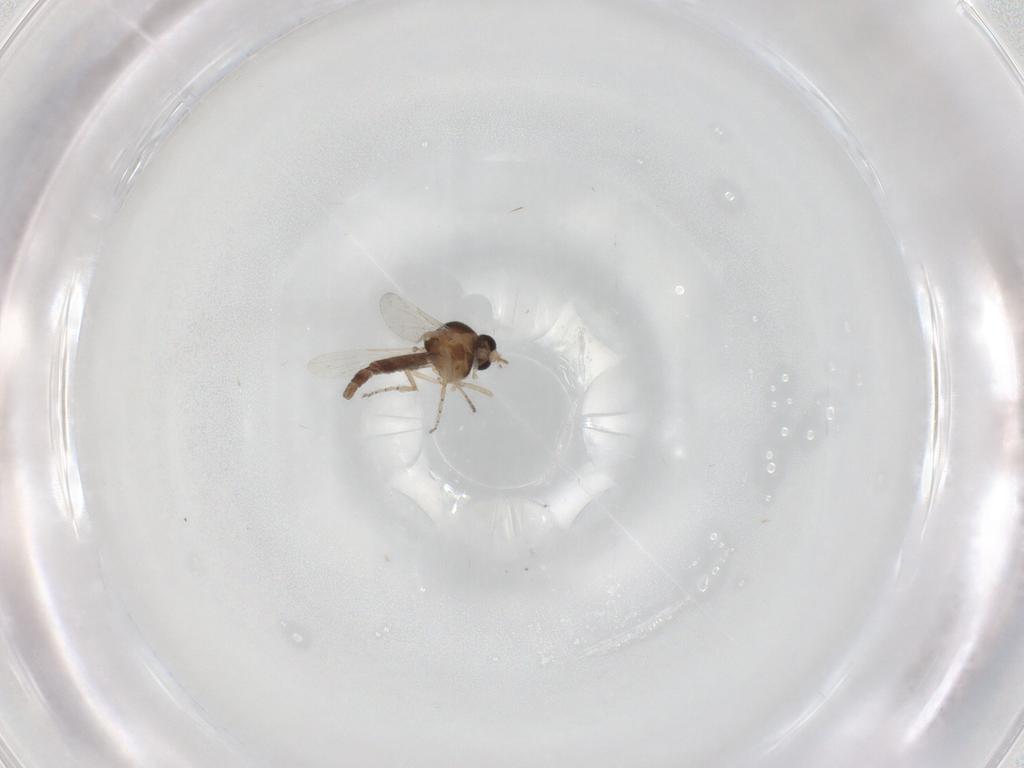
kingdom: Animalia
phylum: Arthropoda
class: Insecta
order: Diptera
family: Ceratopogonidae
